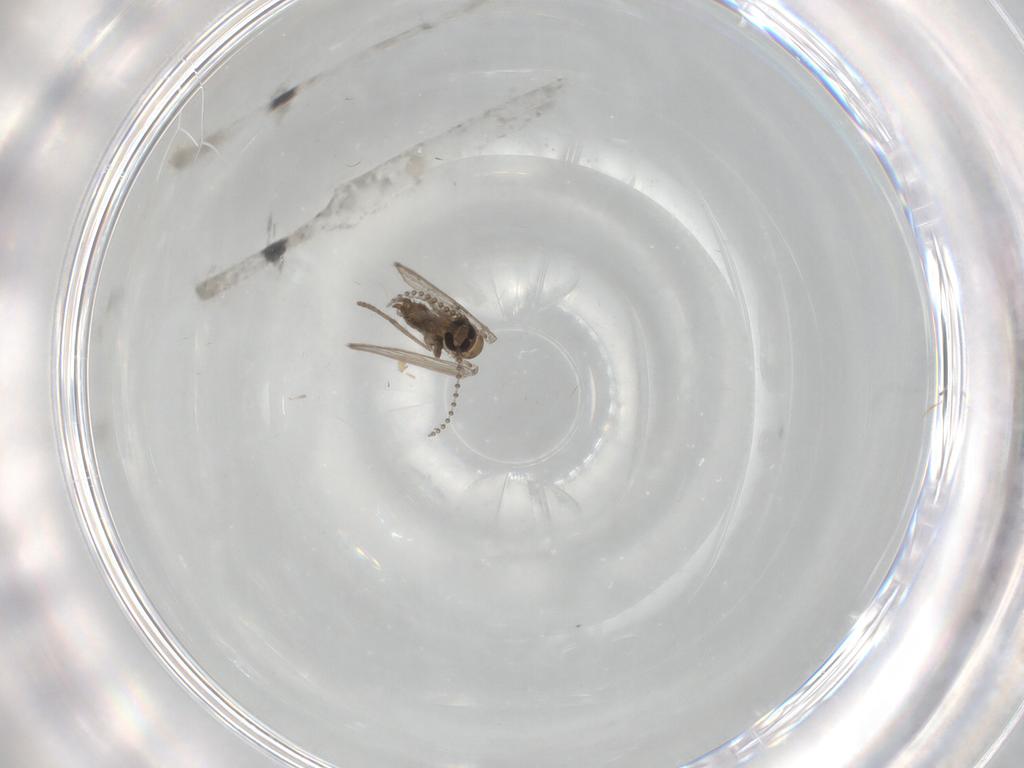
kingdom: Animalia
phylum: Arthropoda
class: Insecta
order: Diptera
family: Psychodidae
